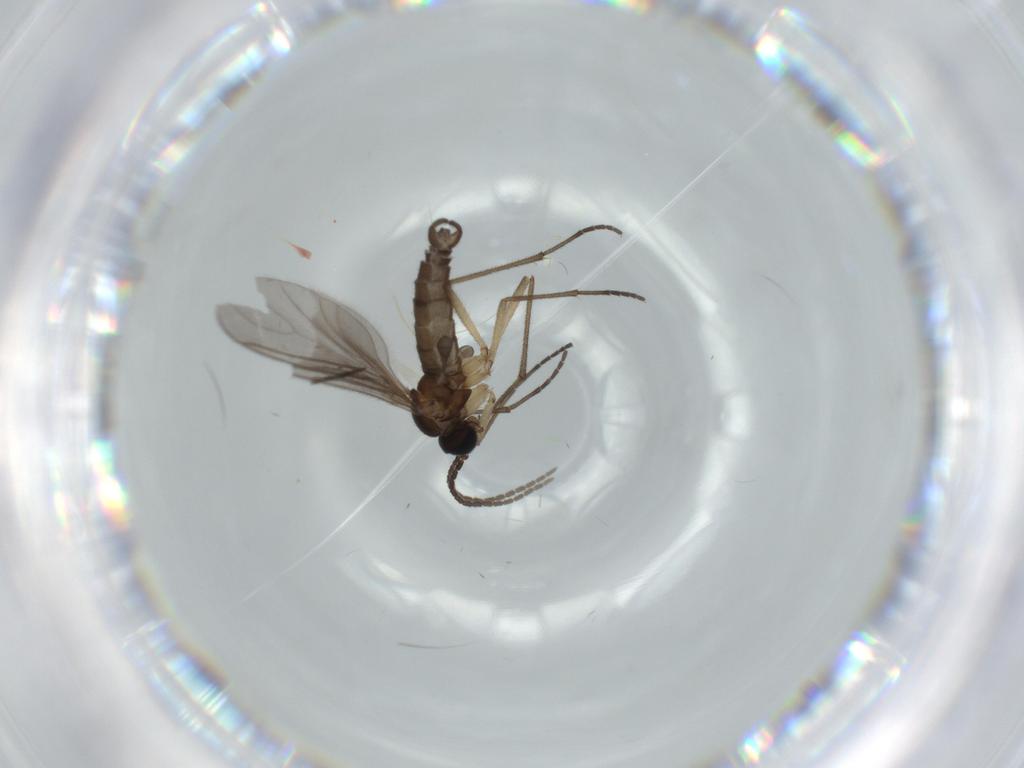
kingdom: Animalia
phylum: Arthropoda
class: Insecta
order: Diptera
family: Sciaridae
